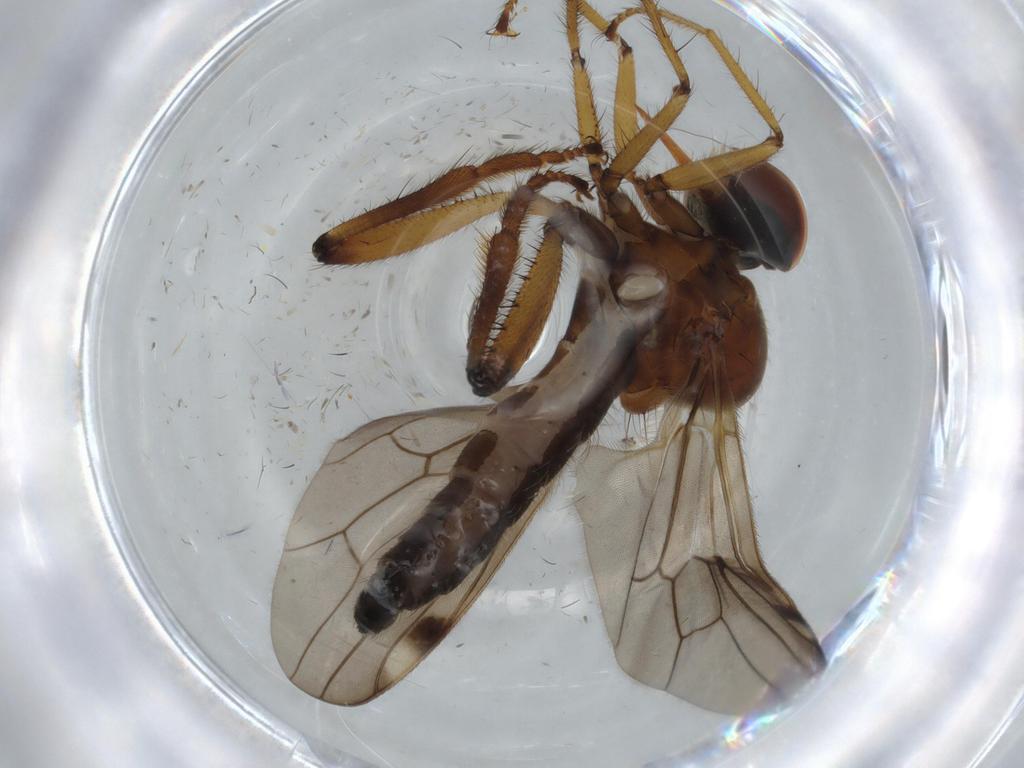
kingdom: Animalia
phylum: Arthropoda
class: Insecta
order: Diptera
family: Hybotidae
